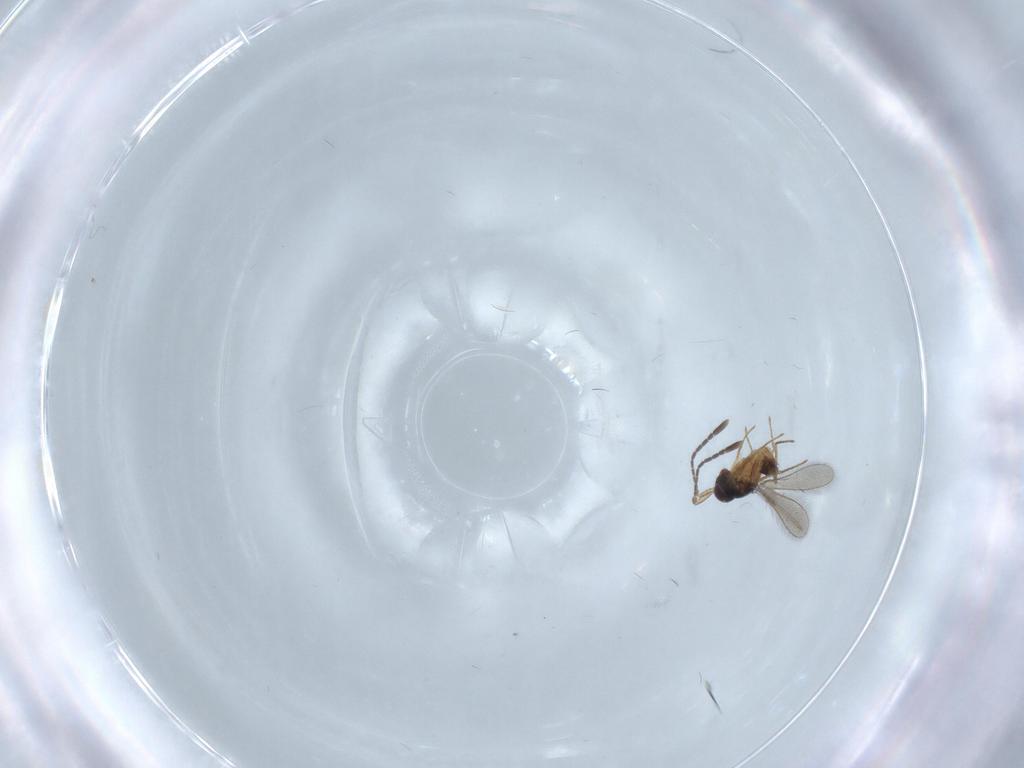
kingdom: Animalia
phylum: Arthropoda
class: Insecta
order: Hymenoptera
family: Mymaridae
